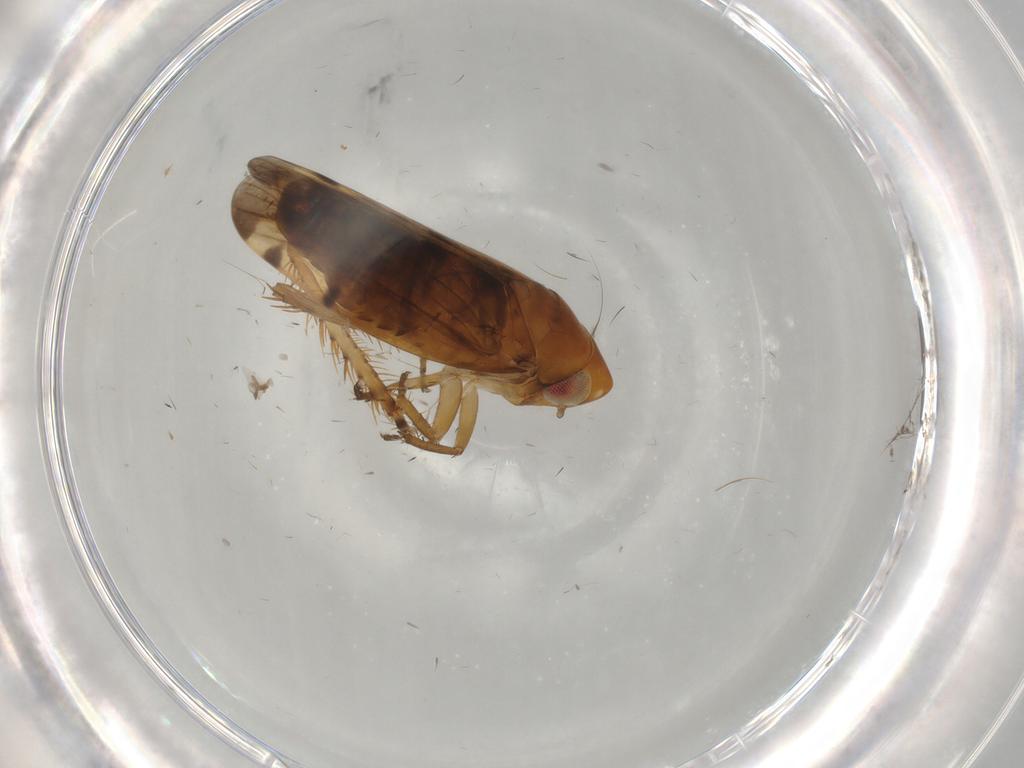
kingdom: Animalia
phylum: Arthropoda
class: Insecta
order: Hemiptera
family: Cicadellidae
